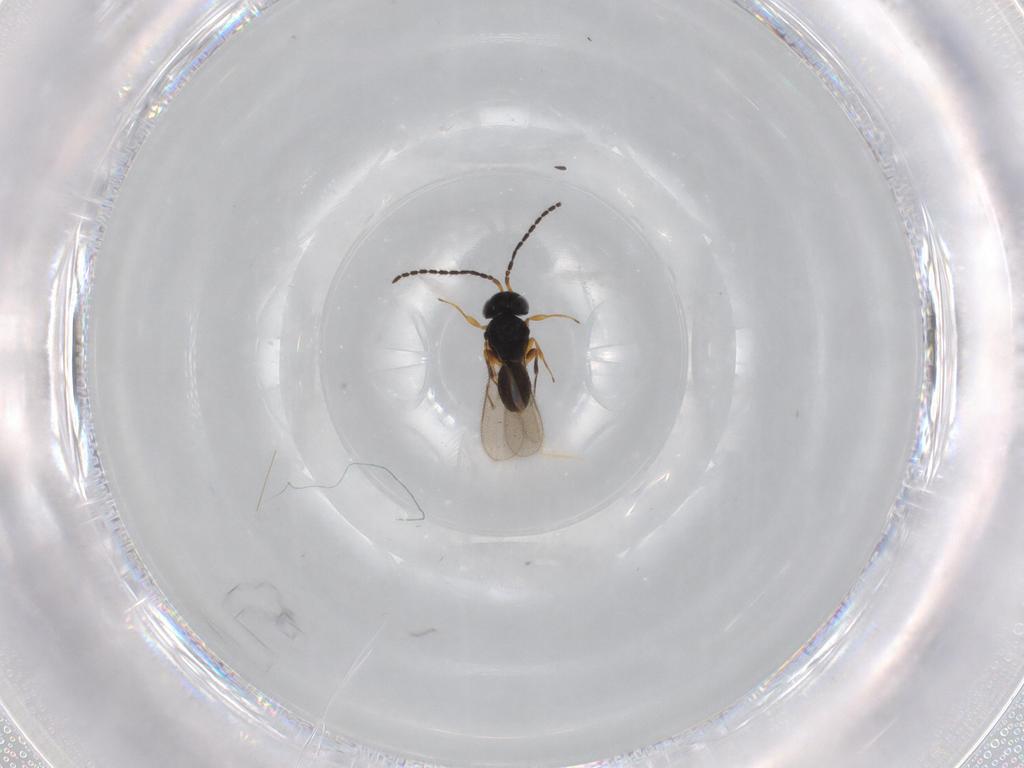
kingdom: Animalia
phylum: Arthropoda
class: Insecta
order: Hymenoptera
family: Scelionidae
